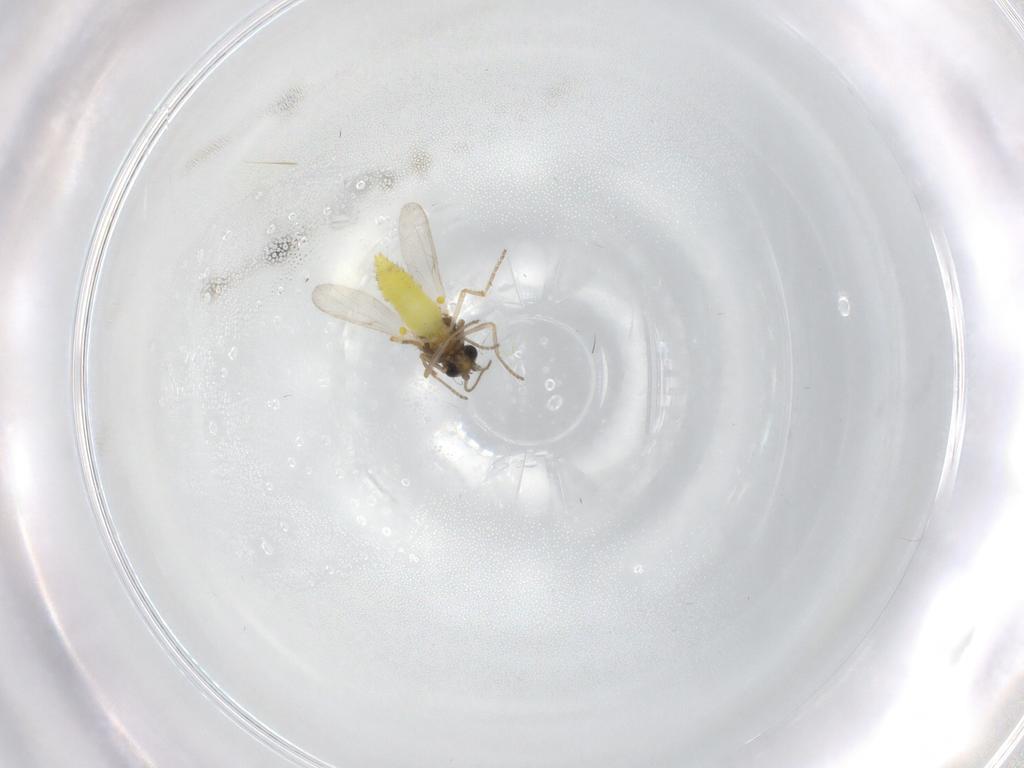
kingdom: Animalia
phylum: Arthropoda
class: Insecta
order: Diptera
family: Ceratopogonidae
